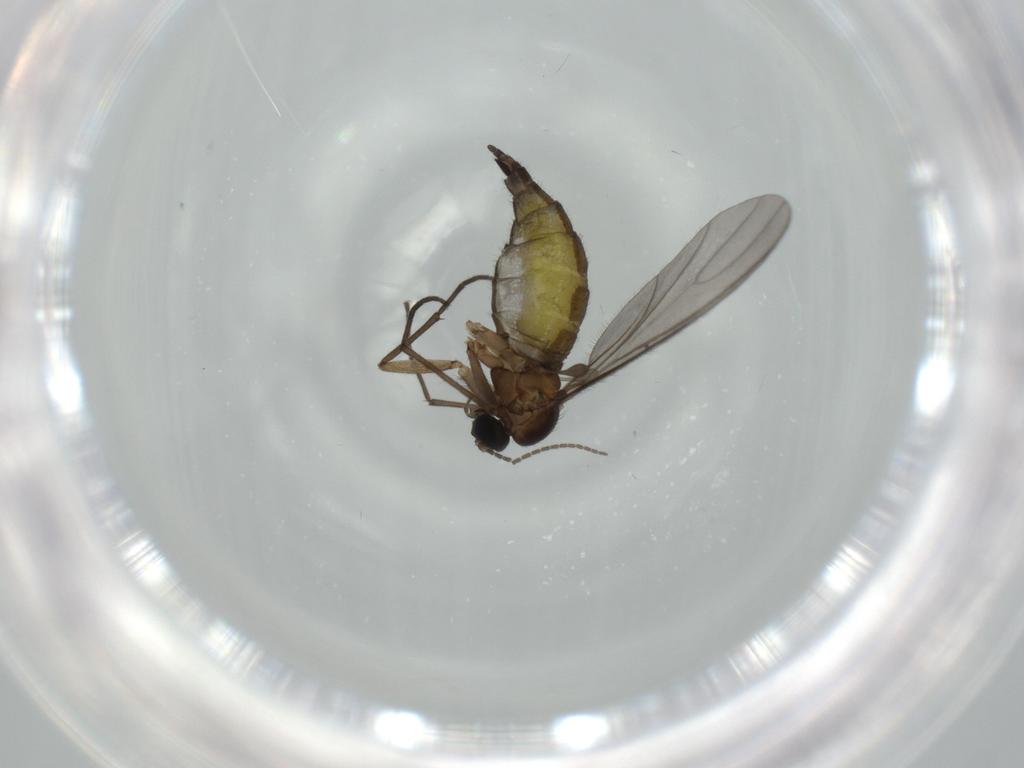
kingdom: Animalia
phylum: Arthropoda
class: Insecta
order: Diptera
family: Sciaridae
